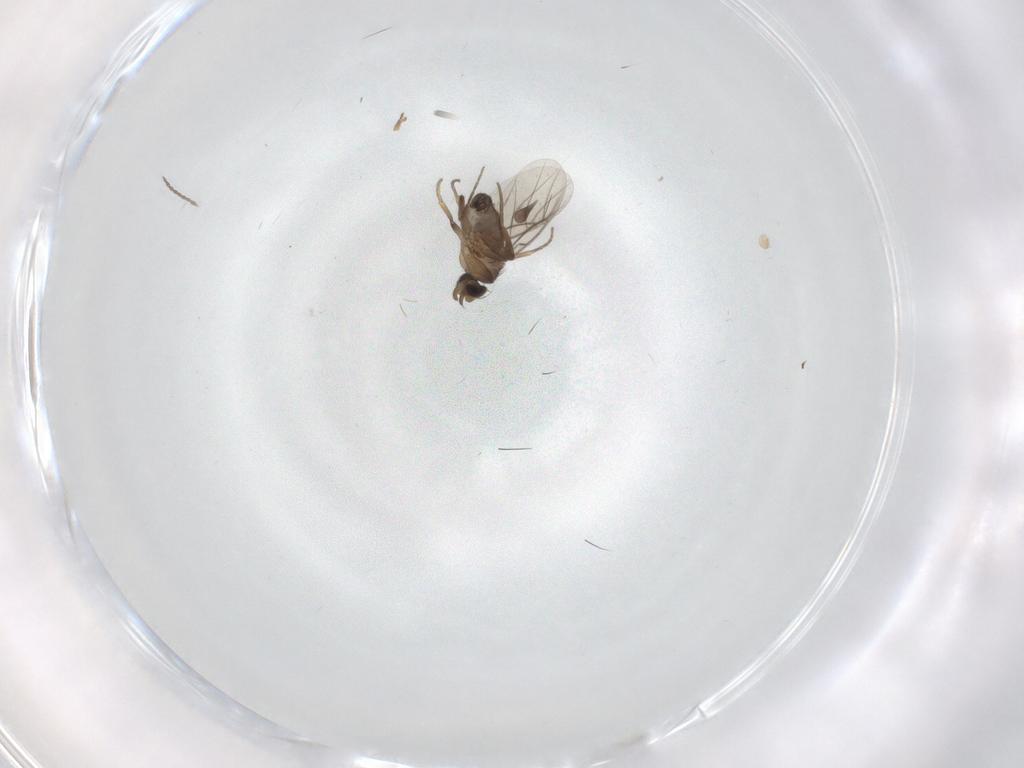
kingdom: Animalia
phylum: Arthropoda
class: Insecta
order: Diptera
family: Sciaridae
